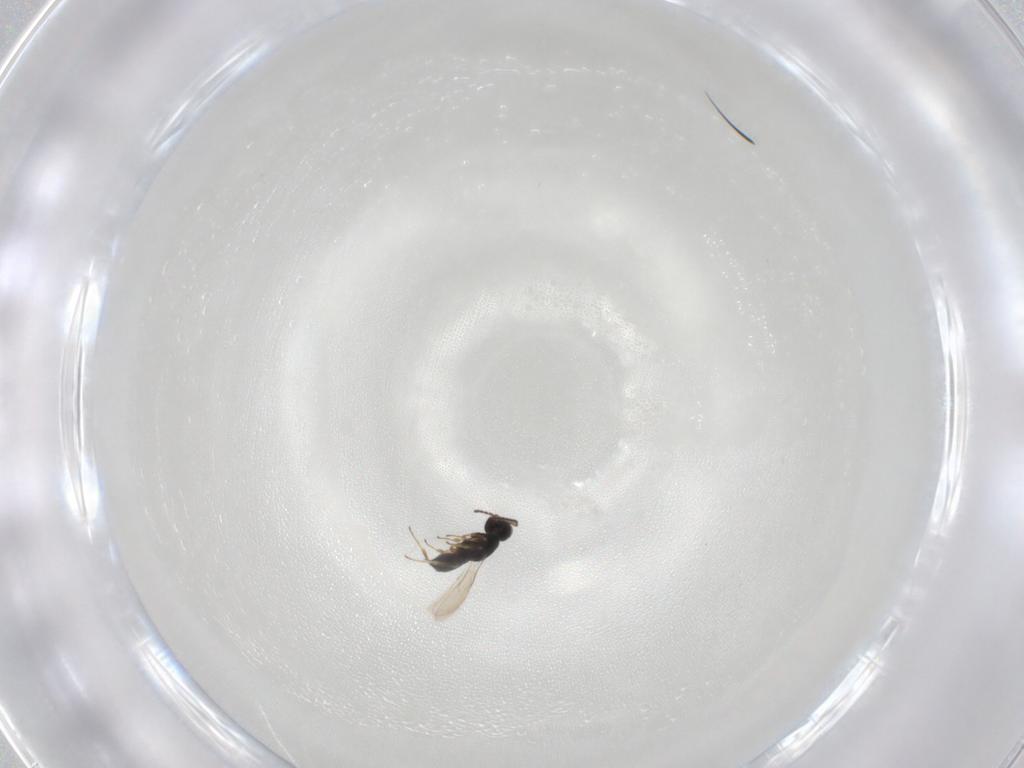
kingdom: Animalia
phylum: Arthropoda
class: Insecta
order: Hymenoptera
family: Scelionidae
